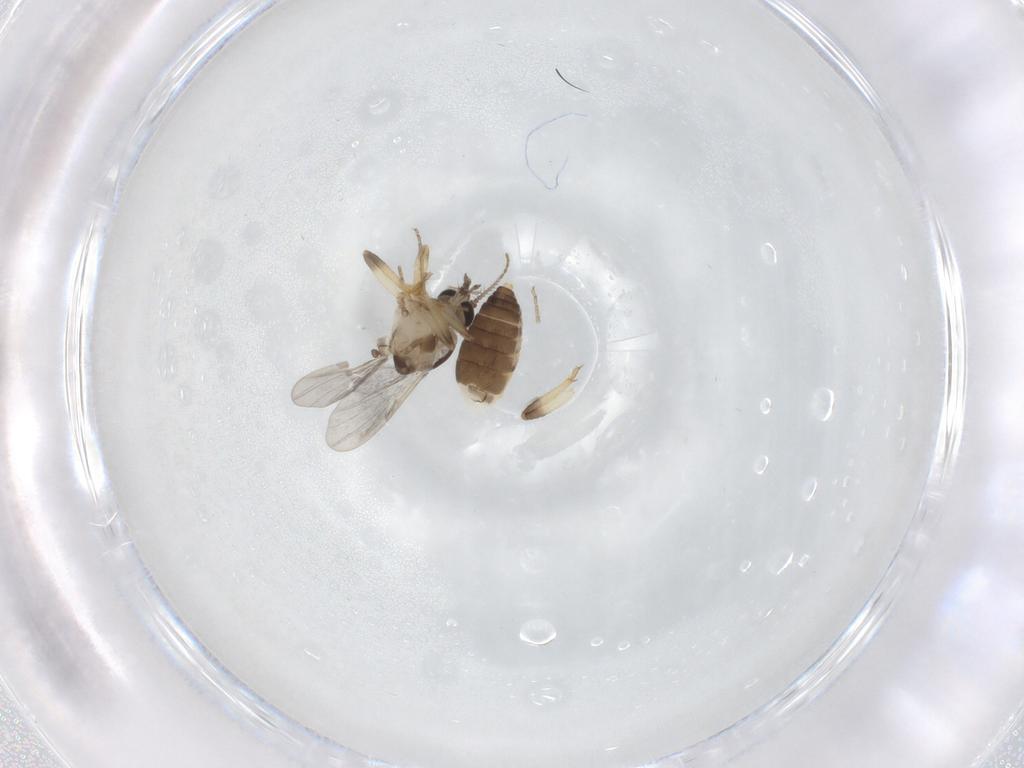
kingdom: Animalia
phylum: Arthropoda
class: Insecta
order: Diptera
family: Ceratopogonidae
